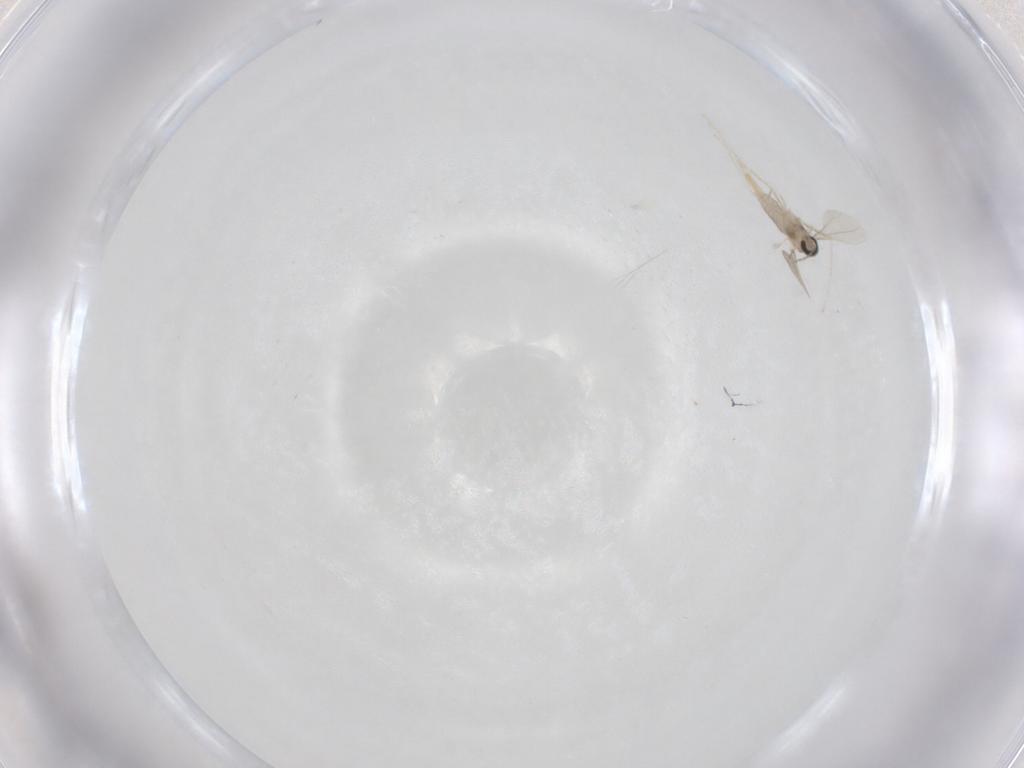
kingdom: Animalia
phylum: Arthropoda
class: Insecta
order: Diptera
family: Cecidomyiidae
